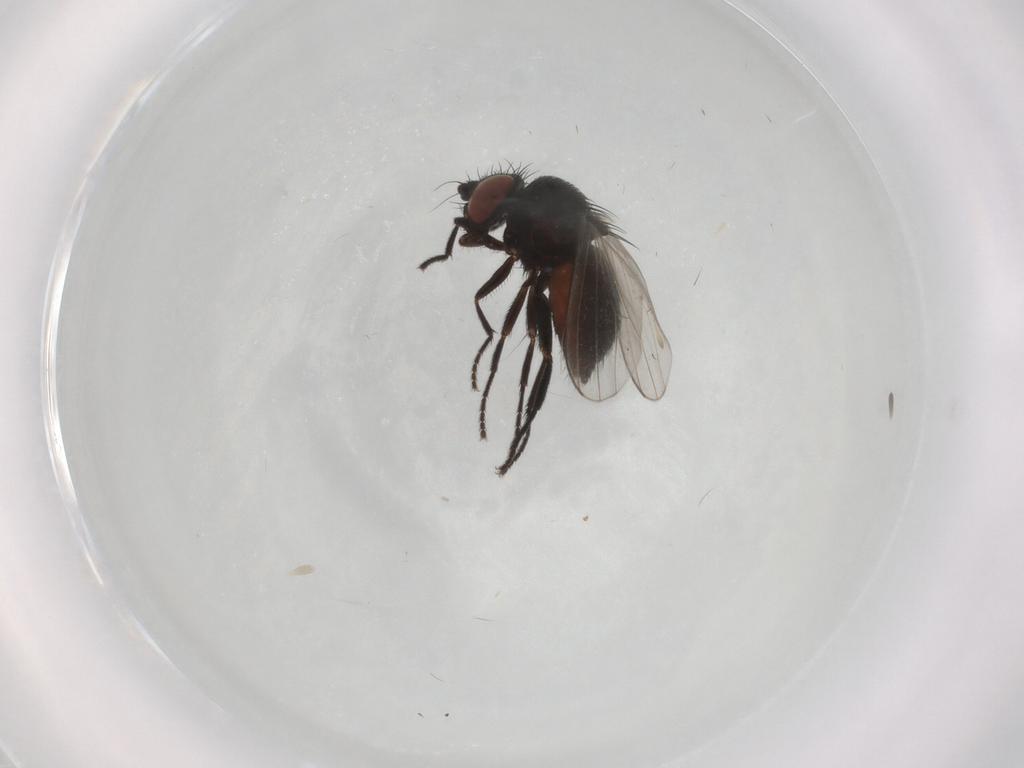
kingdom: Animalia
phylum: Arthropoda
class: Insecta
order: Diptera
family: Milichiidae
